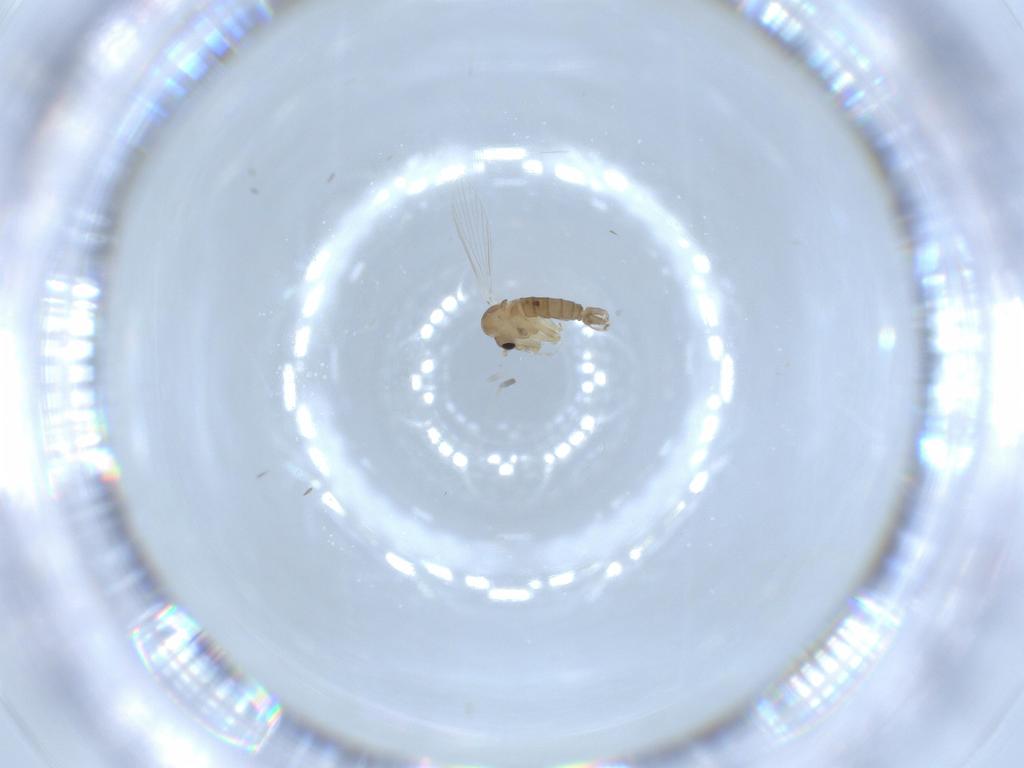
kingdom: Animalia
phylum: Arthropoda
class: Insecta
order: Diptera
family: Psychodidae
